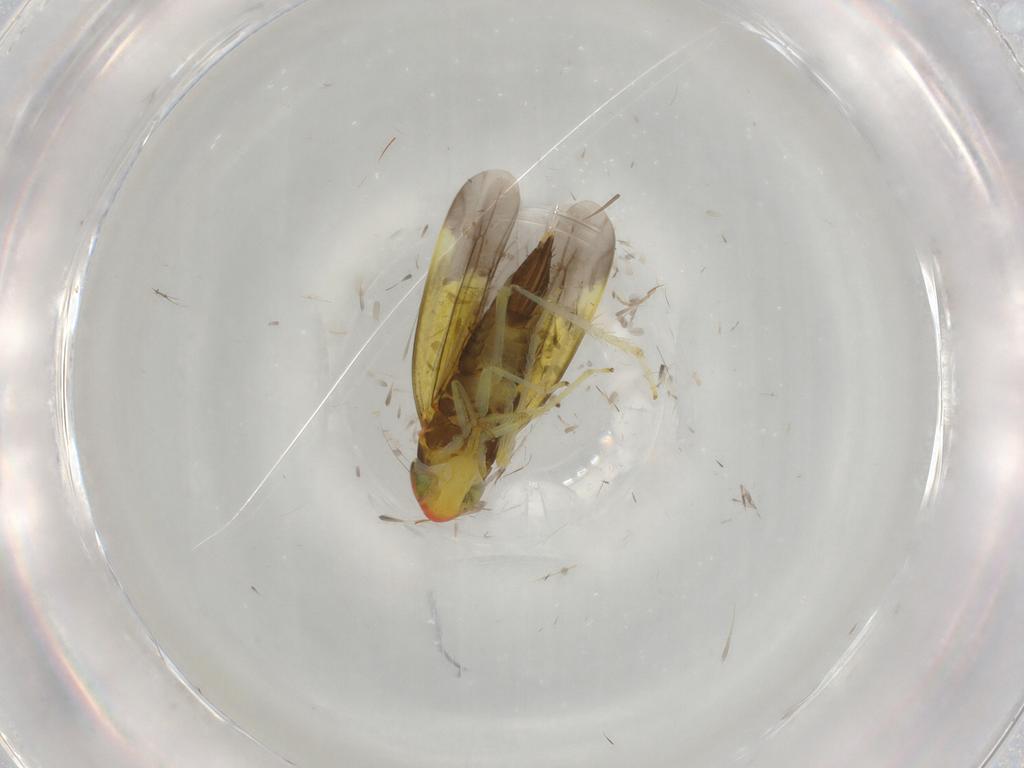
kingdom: Animalia
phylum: Arthropoda
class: Insecta
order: Hemiptera
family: Cicadellidae
